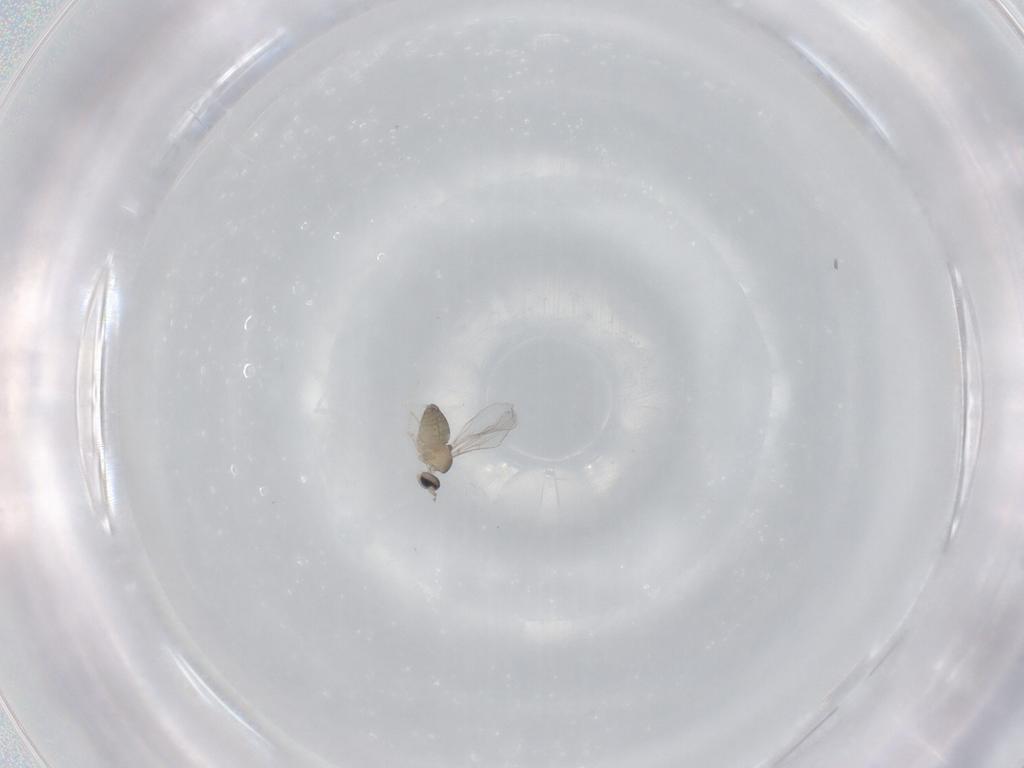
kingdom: Animalia
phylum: Arthropoda
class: Insecta
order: Diptera
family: Cecidomyiidae
